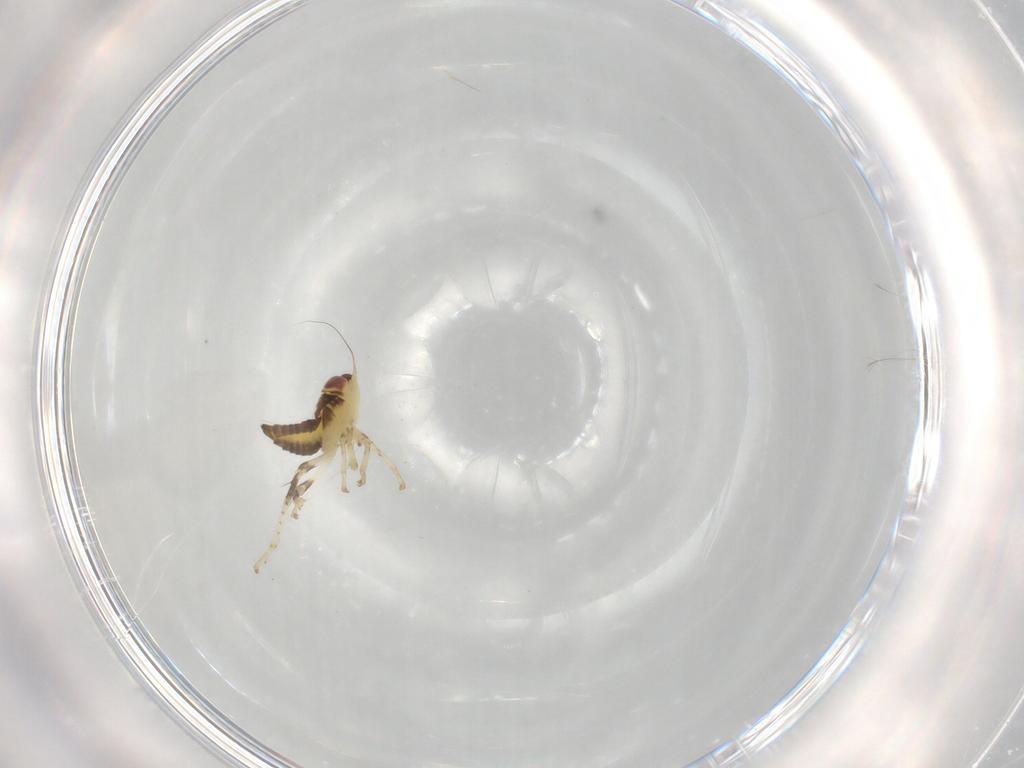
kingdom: Animalia
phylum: Arthropoda
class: Insecta
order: Hemiptera
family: Cicadellidae
